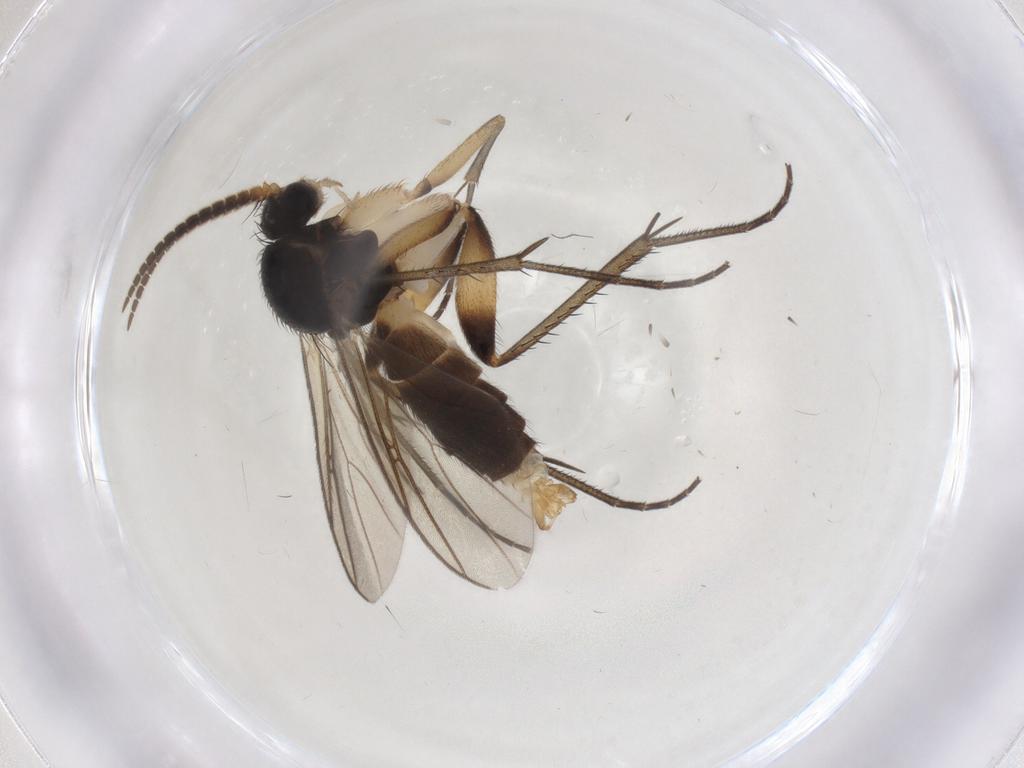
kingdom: Animalia
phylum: Arthropoda
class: Insecta
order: Diptera
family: Mycetophilidae
